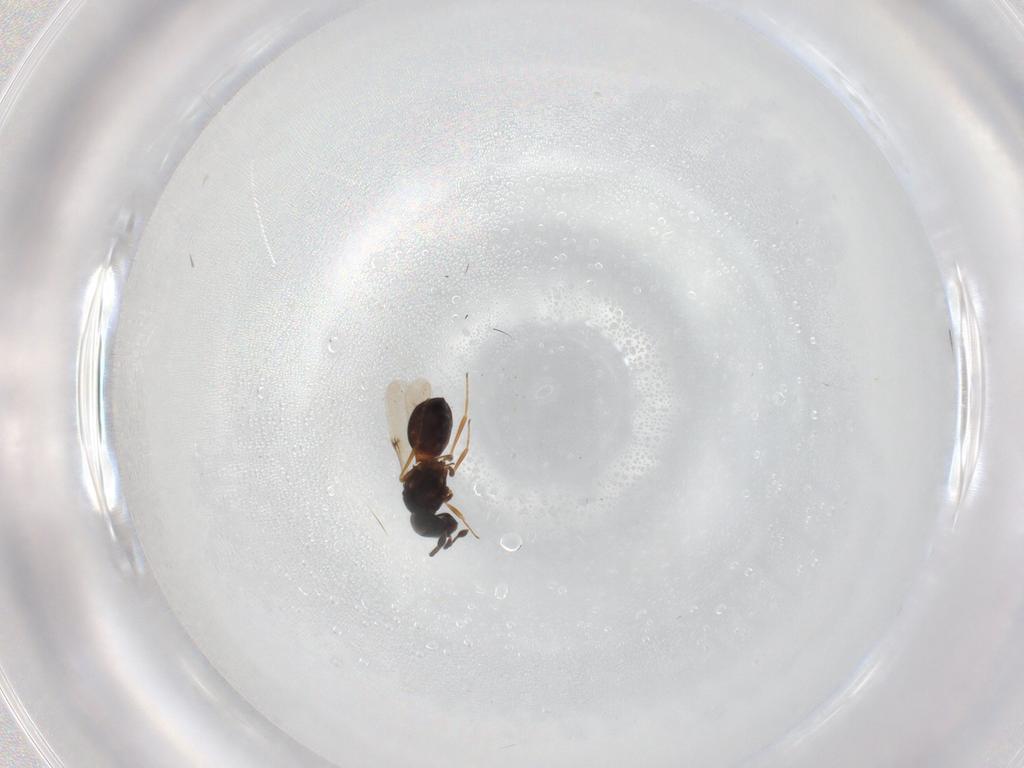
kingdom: Animalia
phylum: Arthropoda
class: Arachnida
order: Araneae
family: Pholcidae
